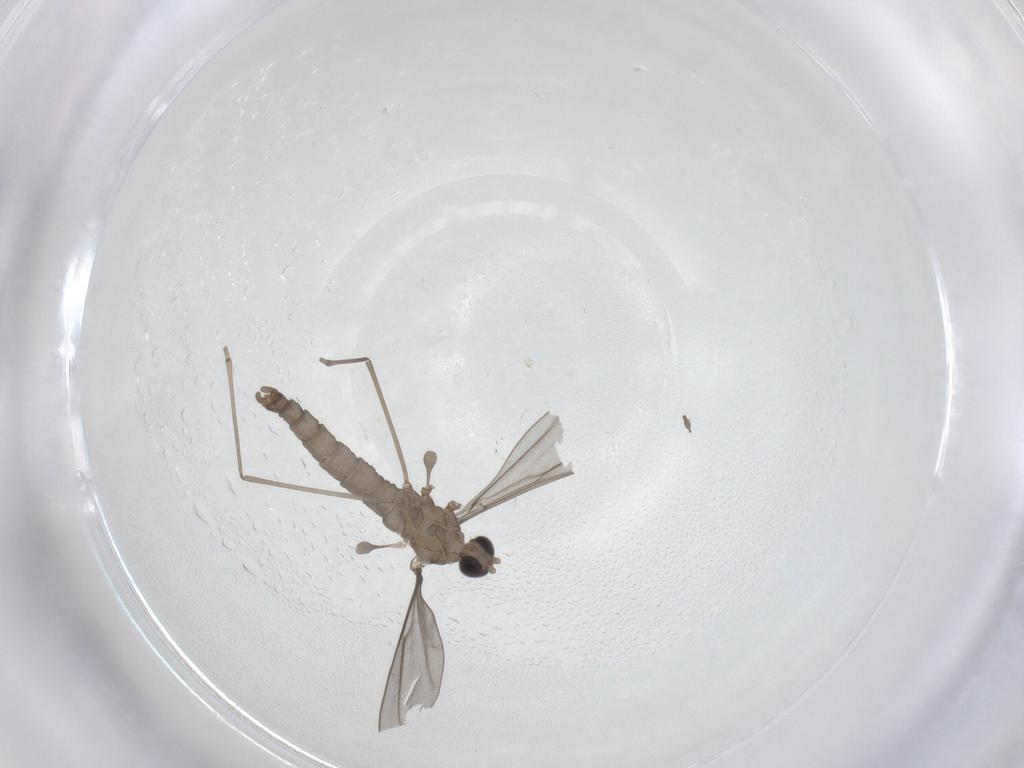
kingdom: Animalia
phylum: Arthropoda
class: Insecta
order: Diptera
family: Cecidomyiidae
